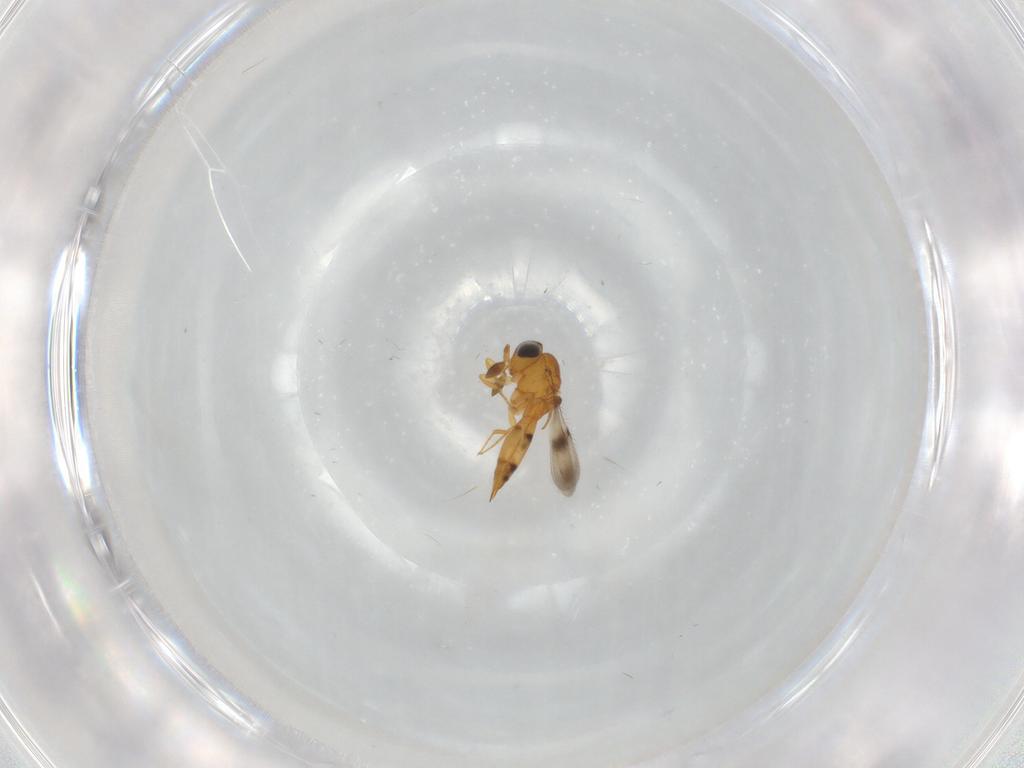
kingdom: Animalia
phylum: Arthropoda
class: Insecta
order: Hymenoptera
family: Scelionidae
